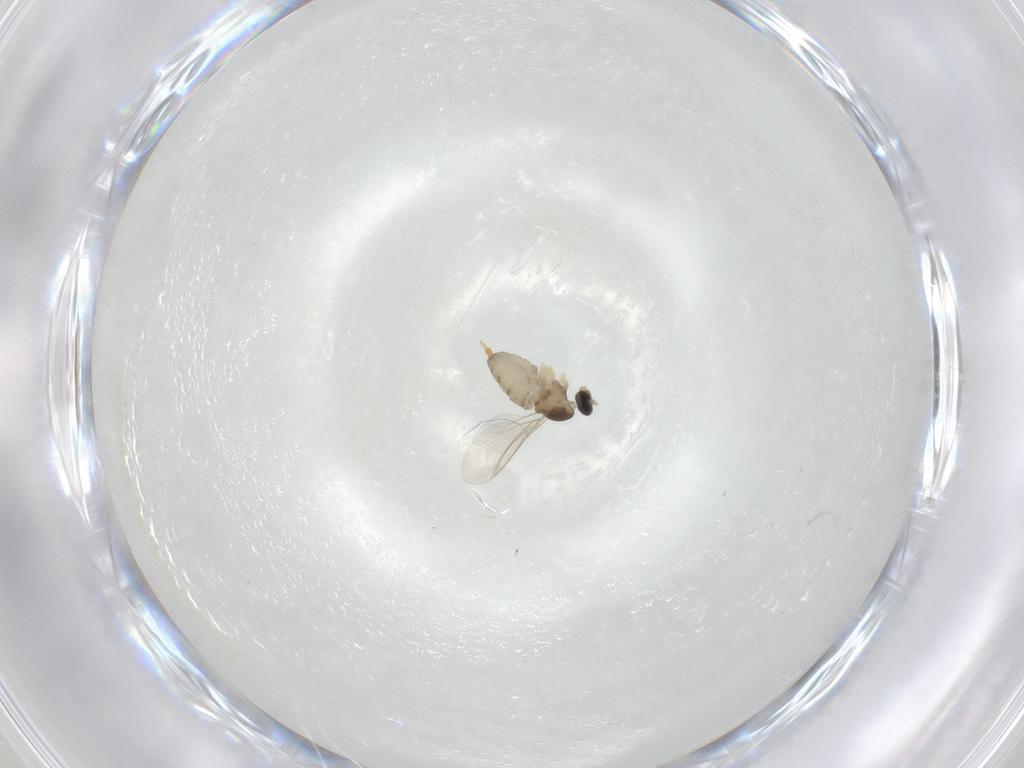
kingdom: Animalia
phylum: Arthropoda
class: Insecta
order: Diptera
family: Cecidomyiidae
